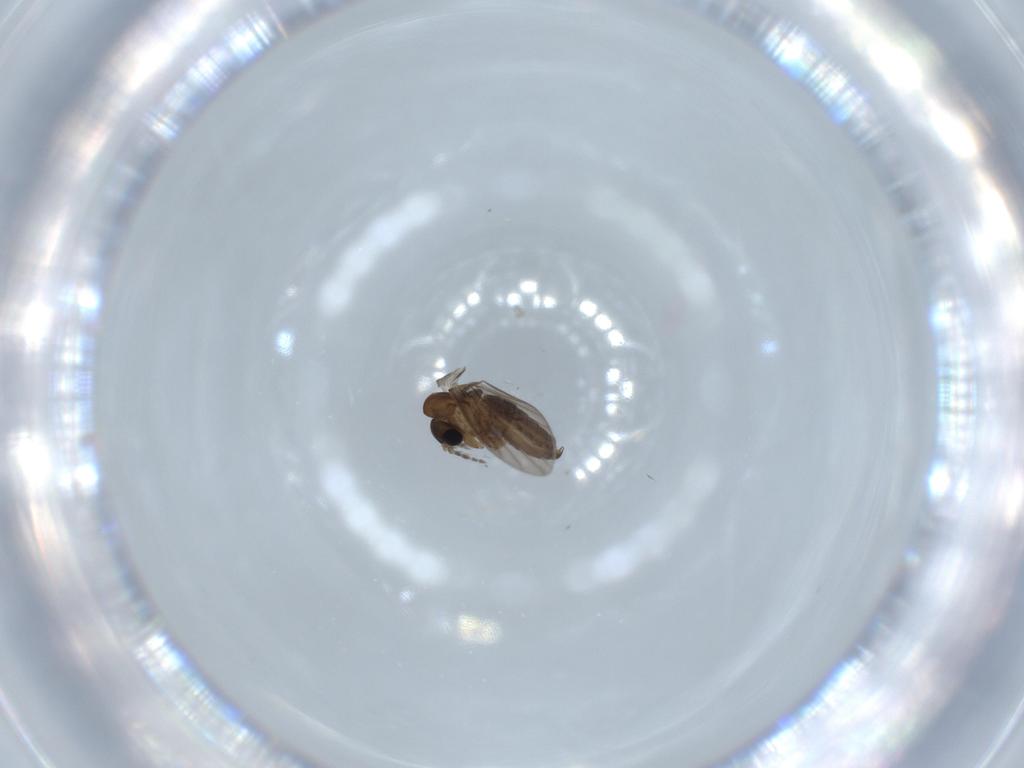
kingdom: Animalia
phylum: Arthropoda
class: Insecta
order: Diptera
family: Psychodidae
